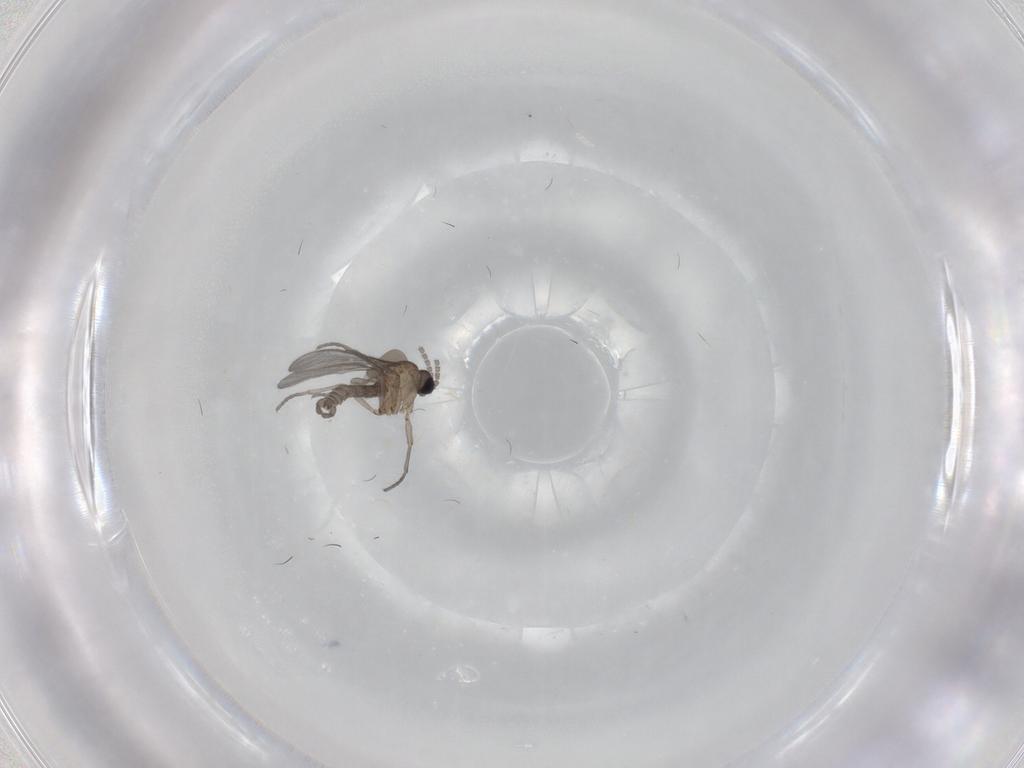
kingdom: Animalia
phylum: Arthropoda
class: Insecta
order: Diptera
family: Sciaridae
